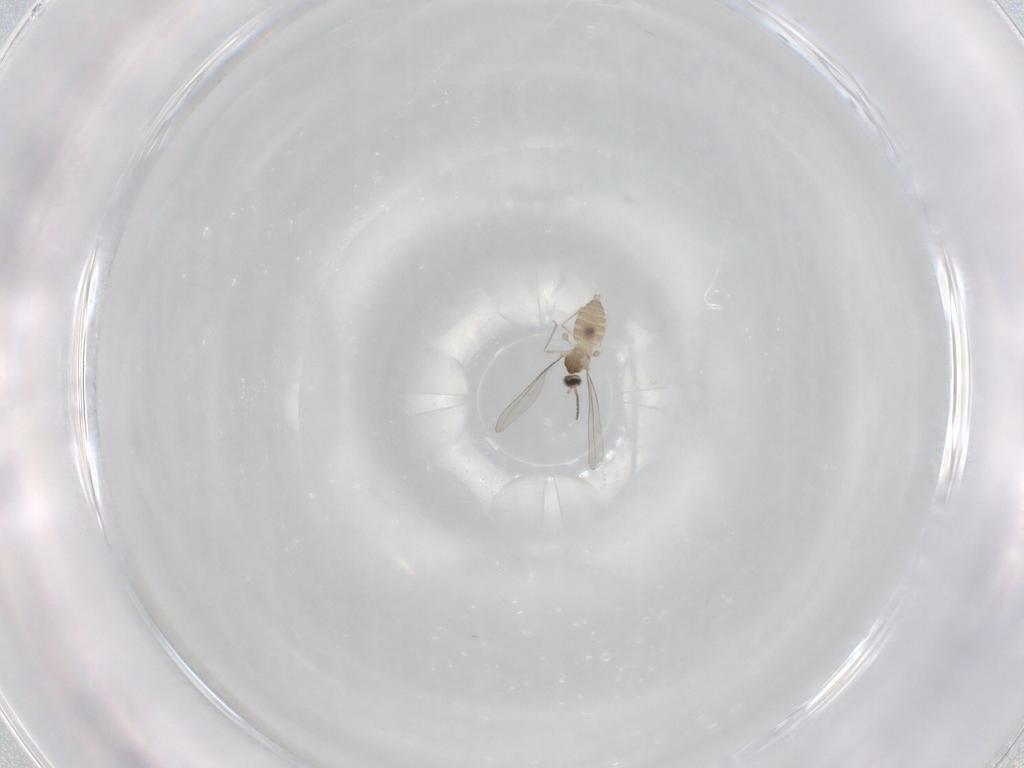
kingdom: Animalia
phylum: Arthropoda
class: Insecta
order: Diptera
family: Cecidomyiidae
